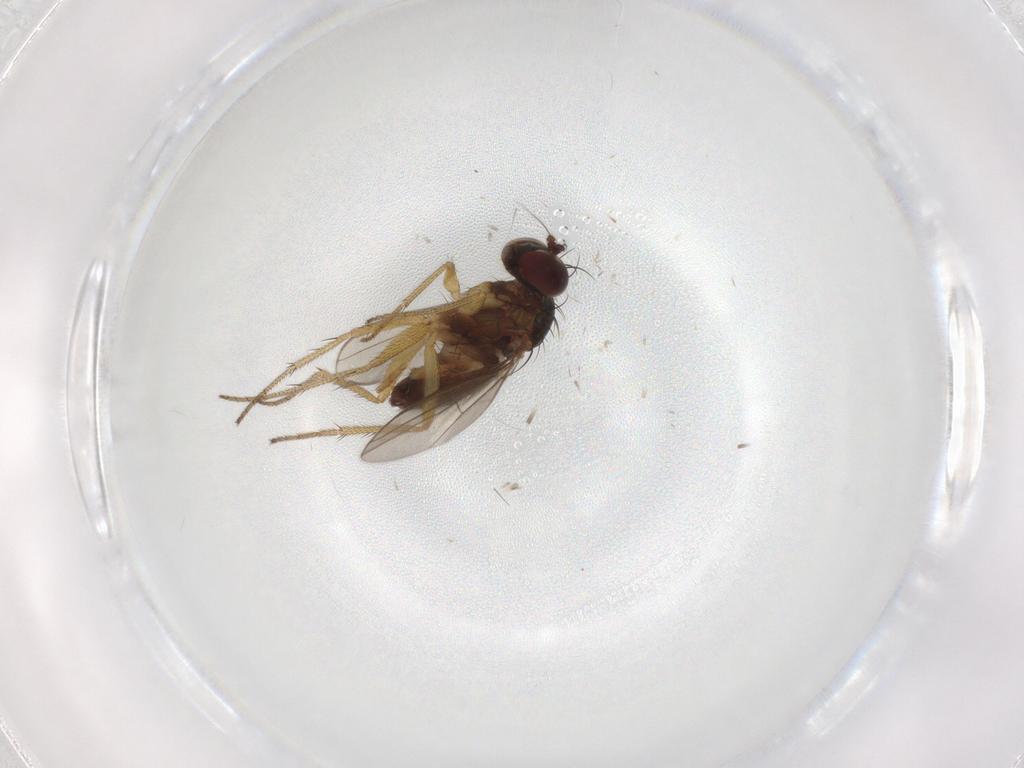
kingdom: Animalia
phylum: Arthropoda
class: Insecta
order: Diptera
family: Dolichopodidae
